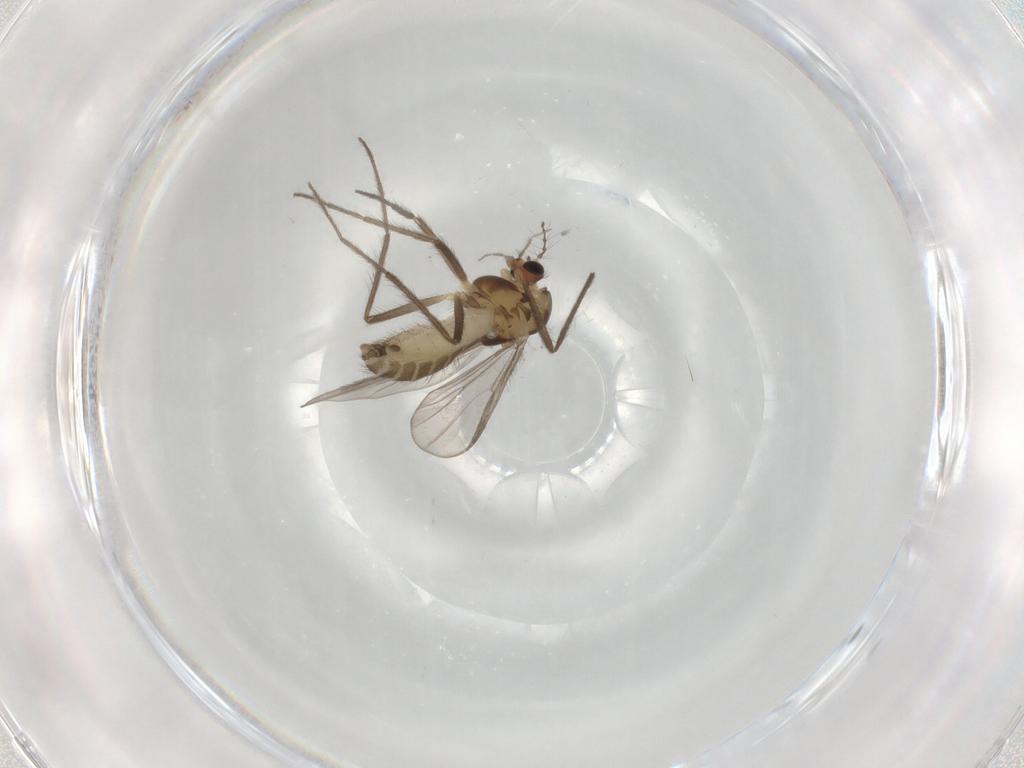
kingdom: Animalia
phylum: Arthropoda
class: Insecta
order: Diptera
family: Chironomidae
